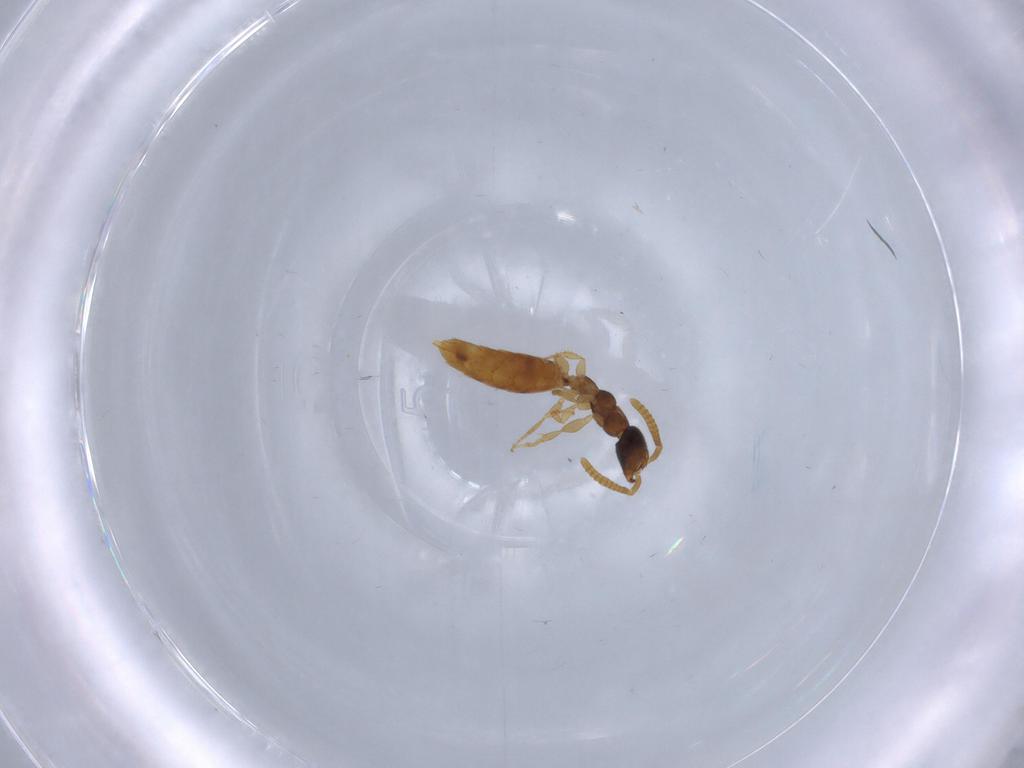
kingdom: Animalia
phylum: Arthropoda
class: Insecta
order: Hymenoptera
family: Bethylidae
